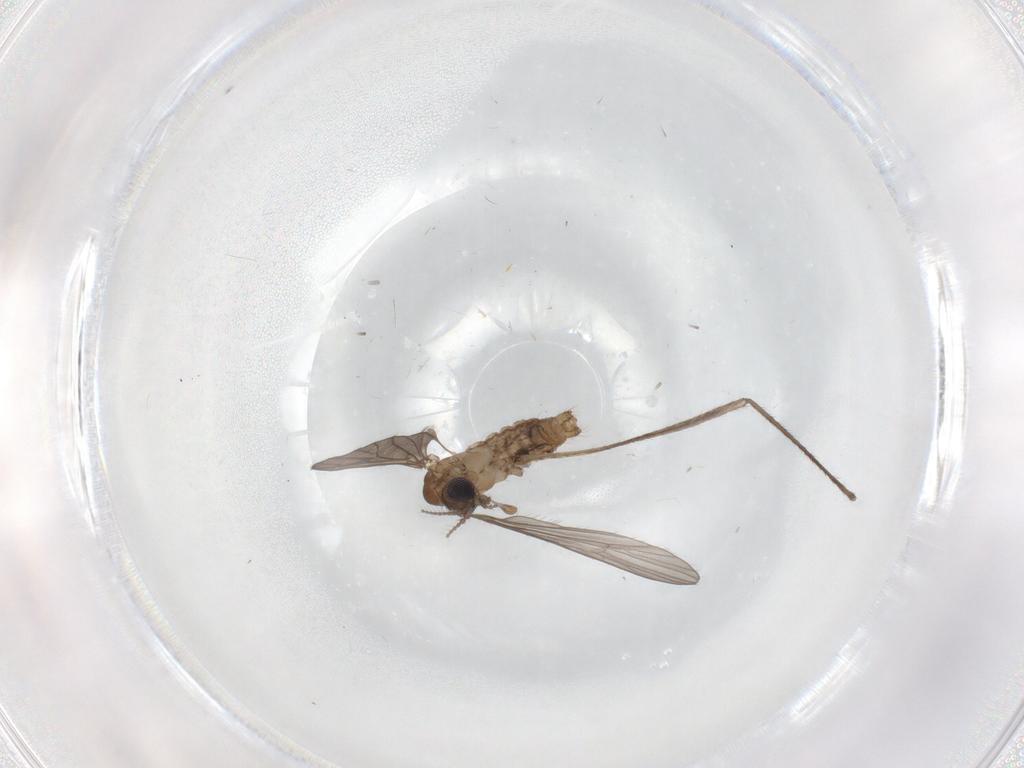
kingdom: Animalia
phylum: Arthropoda
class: Insecta
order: Diptera
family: Limoniidae
